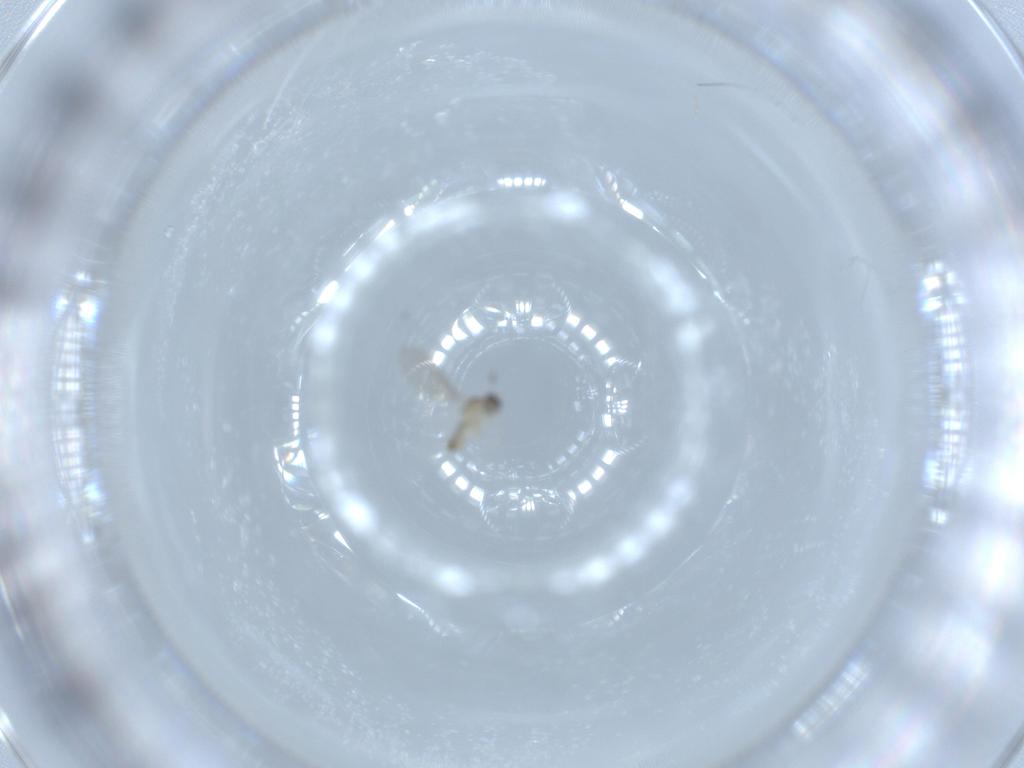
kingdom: Animalia
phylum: Arthropoda
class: Insecta
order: Diptera
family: Cecidomyiidae
